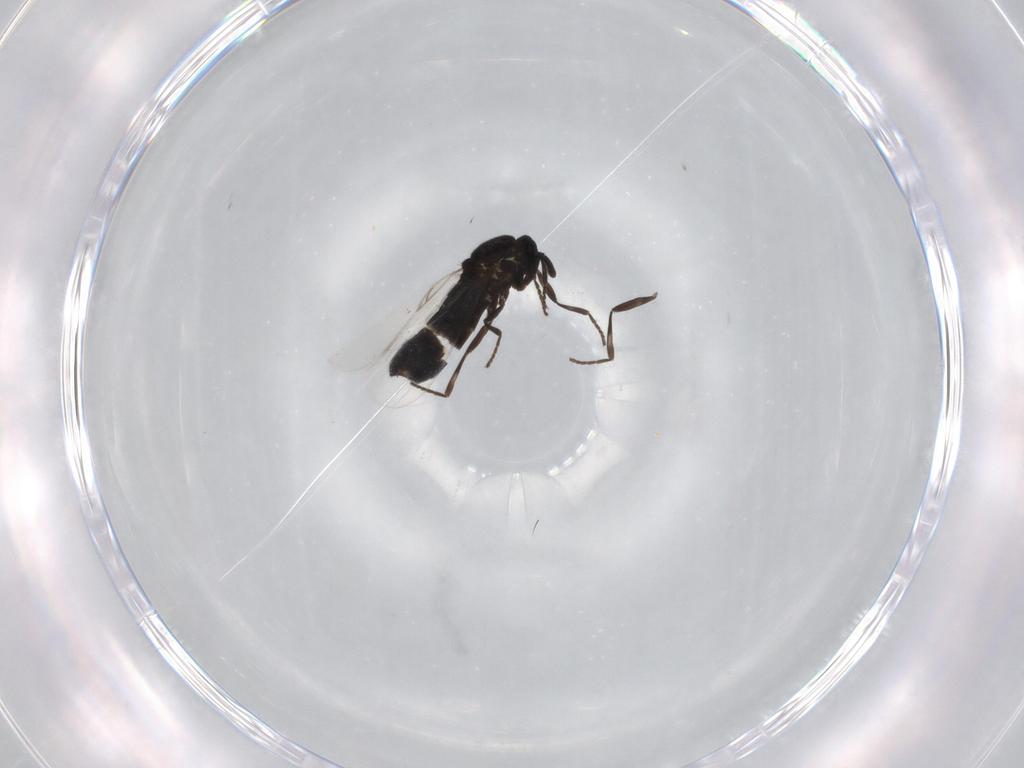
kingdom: Animalia
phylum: Arthropoda
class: Insecta
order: Diptera
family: Scatopsidae
